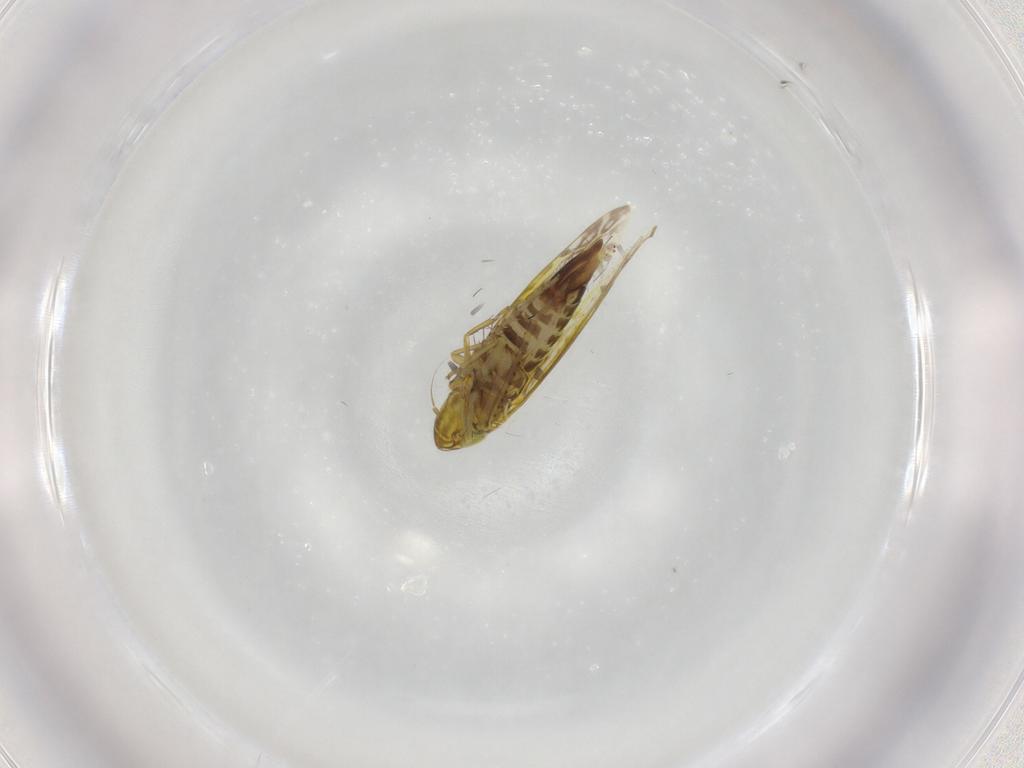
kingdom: Animalia
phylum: Arthropoda
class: Insecta
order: Hemiptera
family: Cicadellidae
